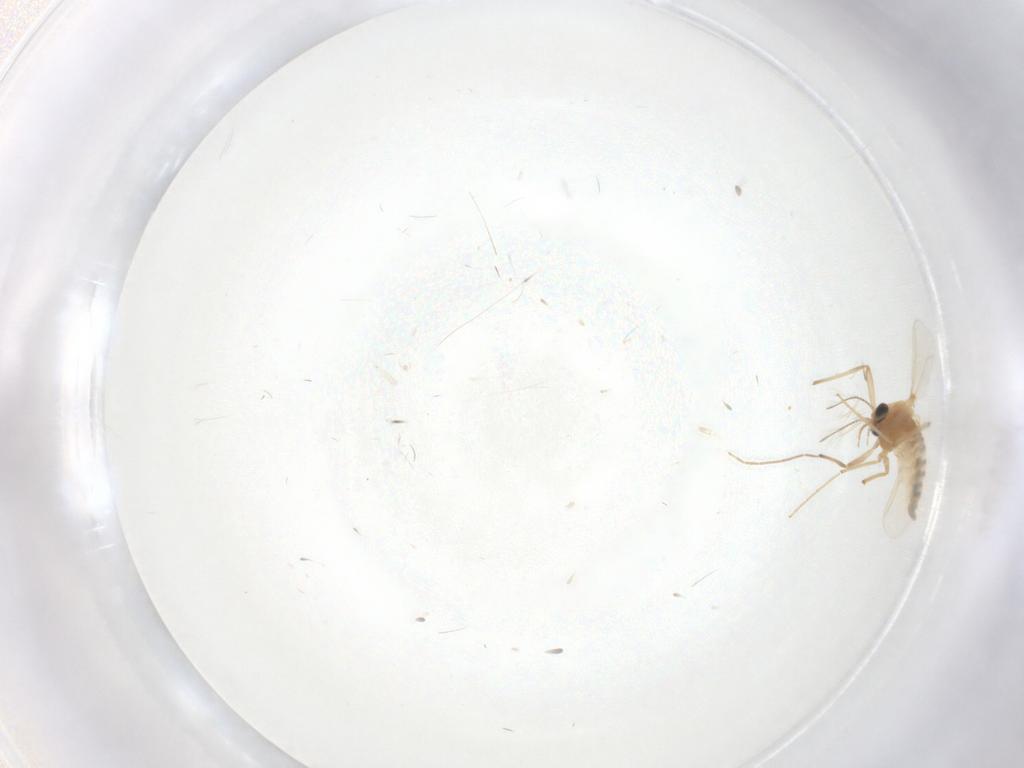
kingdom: Animalia
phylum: Arthropoda
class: Insecta
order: Diptera
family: Chironomidae
